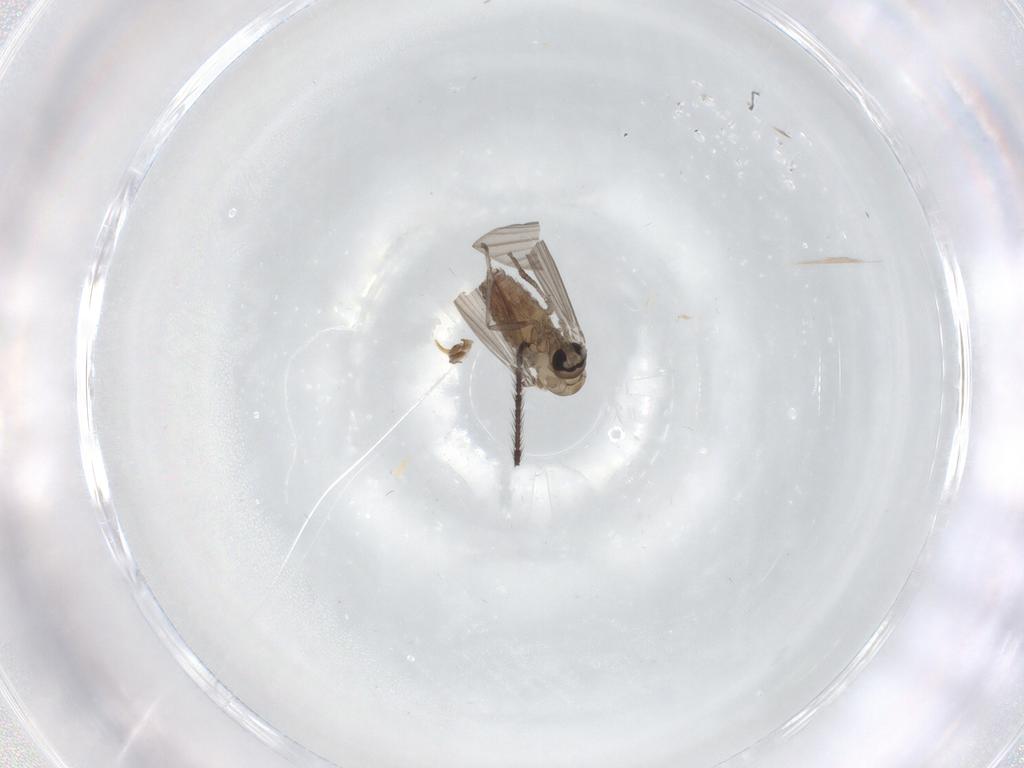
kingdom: Animalia
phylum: Arthropoda
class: Insecta
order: Diptera
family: Psychodidae
